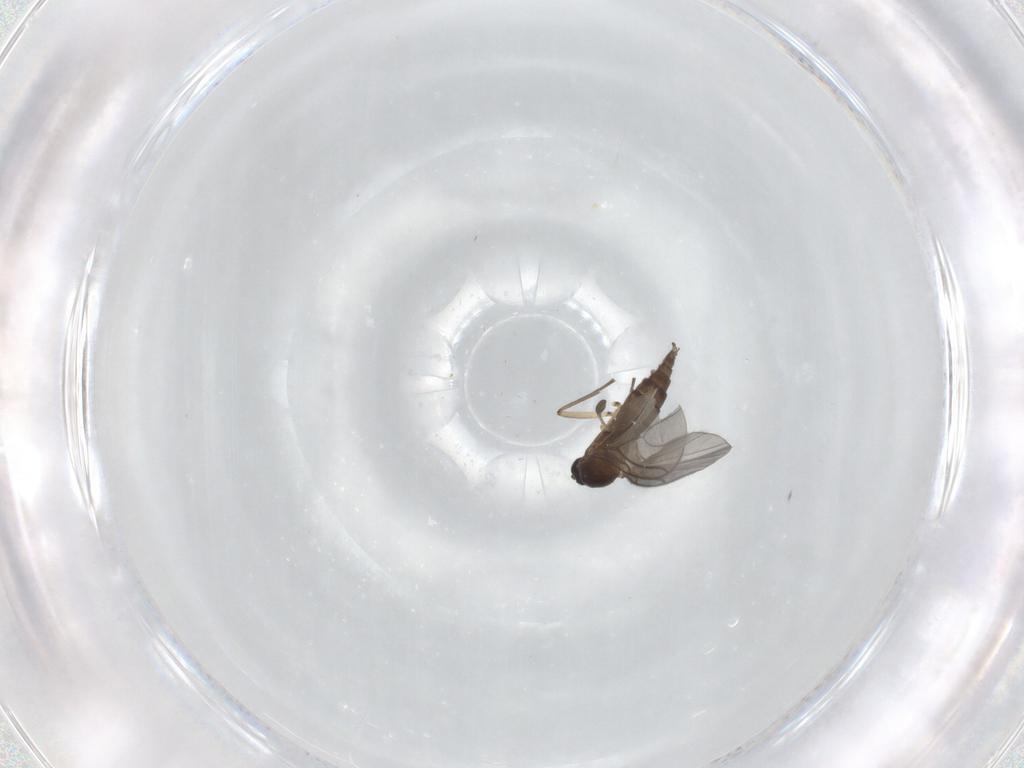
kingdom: Animalia
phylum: Arthropoda
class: Insecta
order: Diptera
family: Sciaridae
